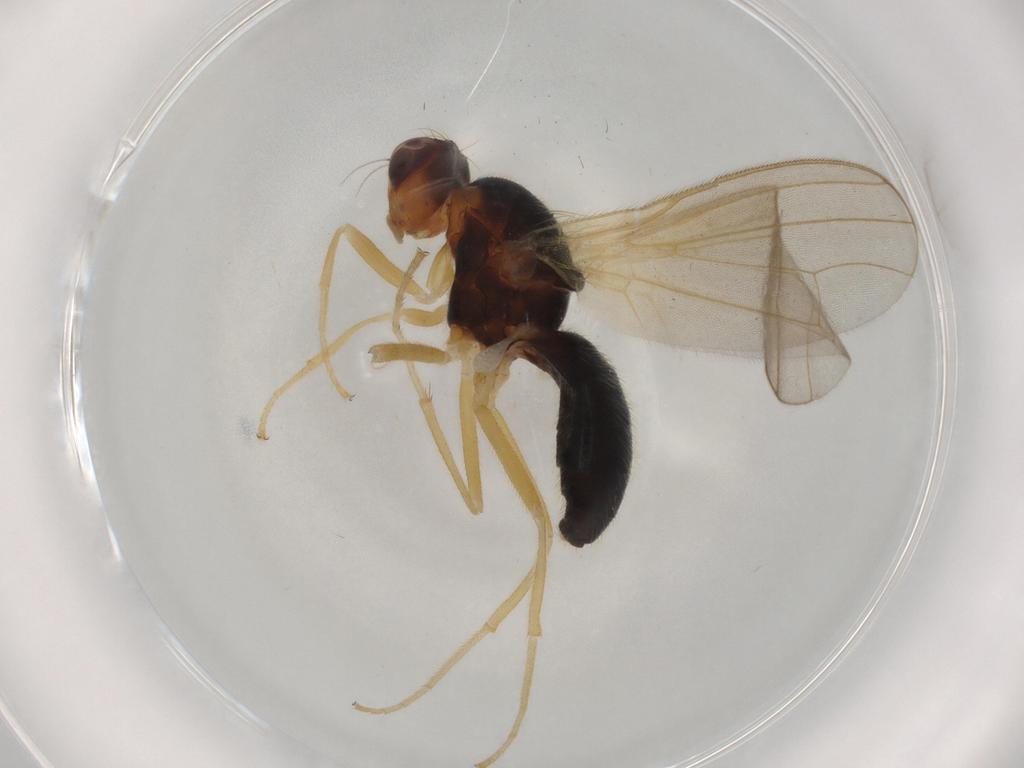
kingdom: Animalia
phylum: Arthropoda
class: Insecta
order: Diptera
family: Psilidae
